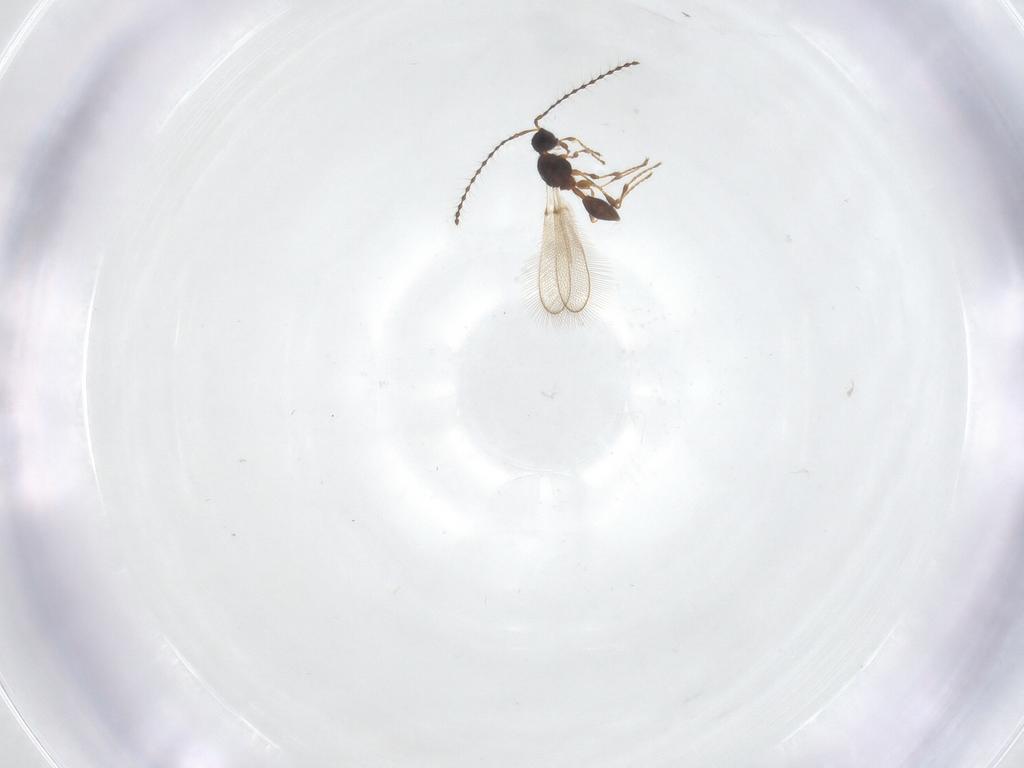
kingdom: Animalia
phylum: Arthropoda
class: Insecta
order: Hymenoptera
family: Diapriidae
